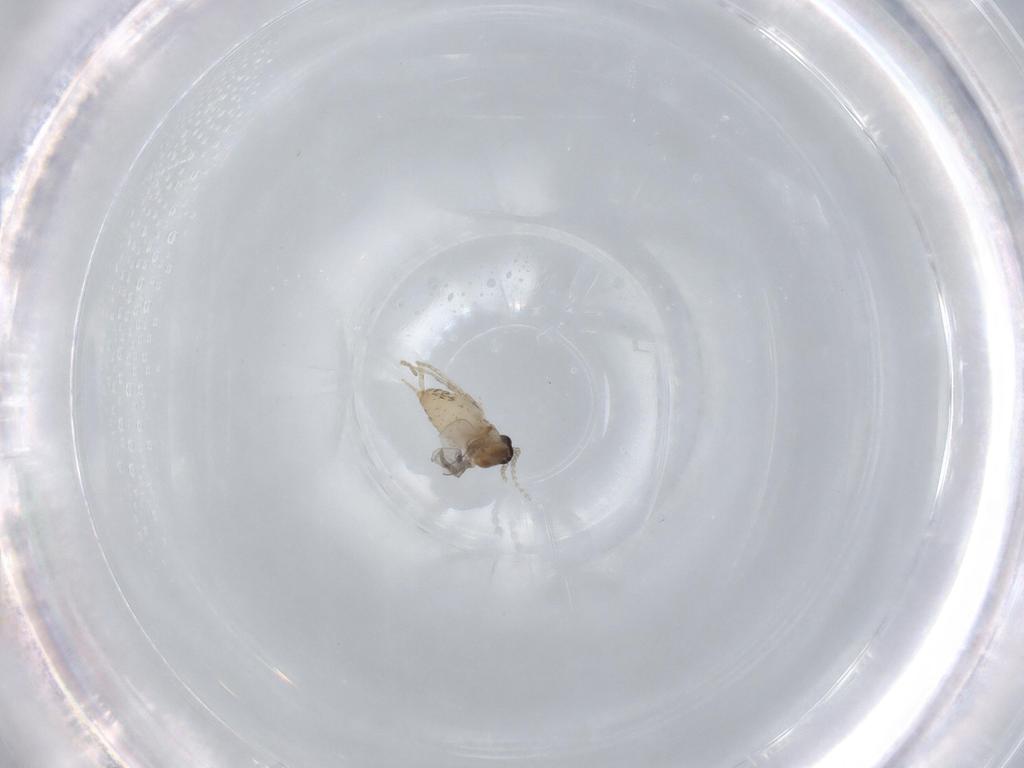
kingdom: Animalia
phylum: Arthropoda
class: Insecta
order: Diptera
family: Cecidomyiidae
